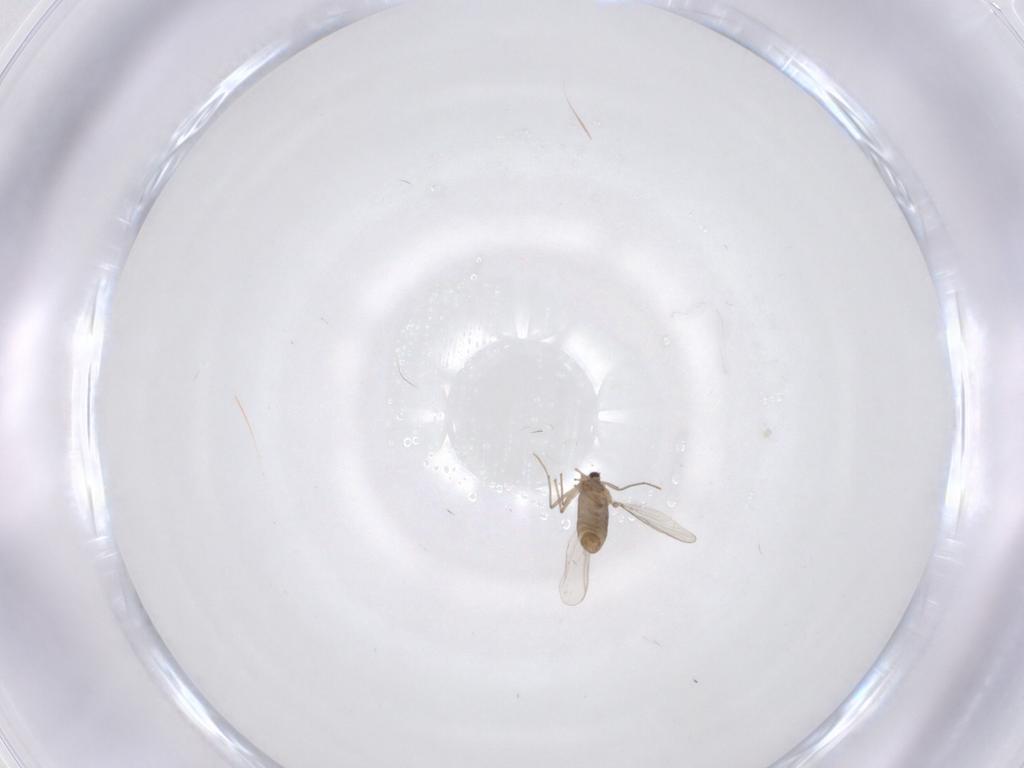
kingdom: Animalia
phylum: Arthropoda
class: Insecta
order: Diptera
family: Chironomidae
